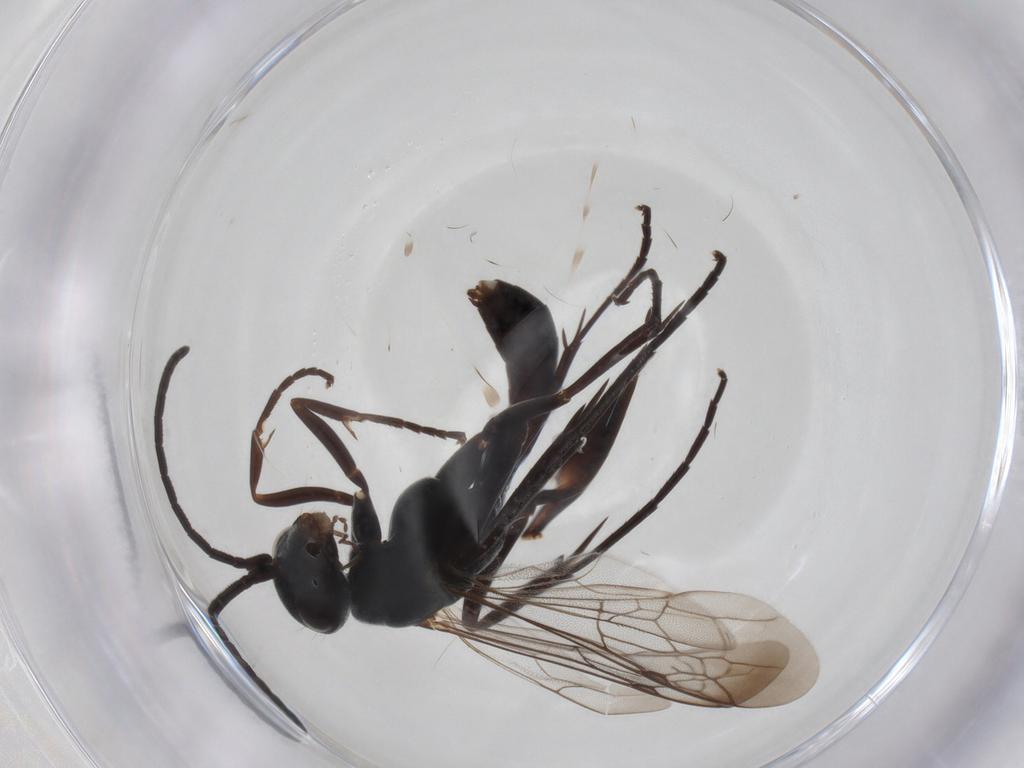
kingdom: Animalia
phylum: Arthropoda
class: Insecta
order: Hymenoptera
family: Pompilidae
